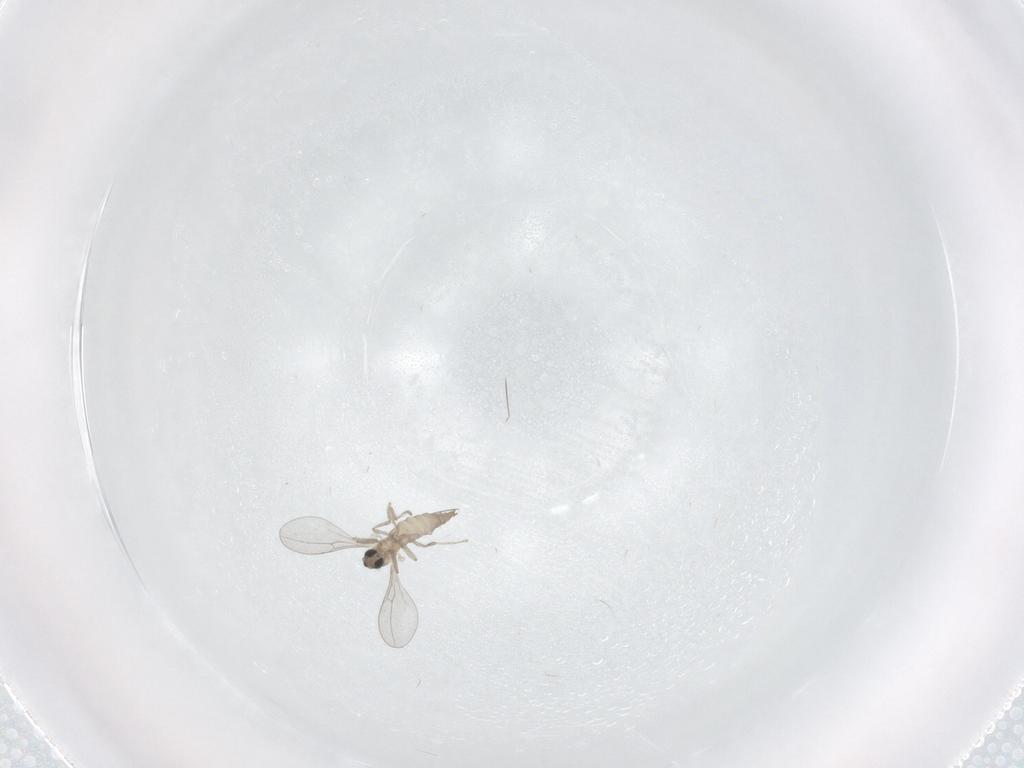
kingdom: Animalia
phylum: Arthropoda
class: Insecta
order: Diptera
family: Cecidomyiidae
